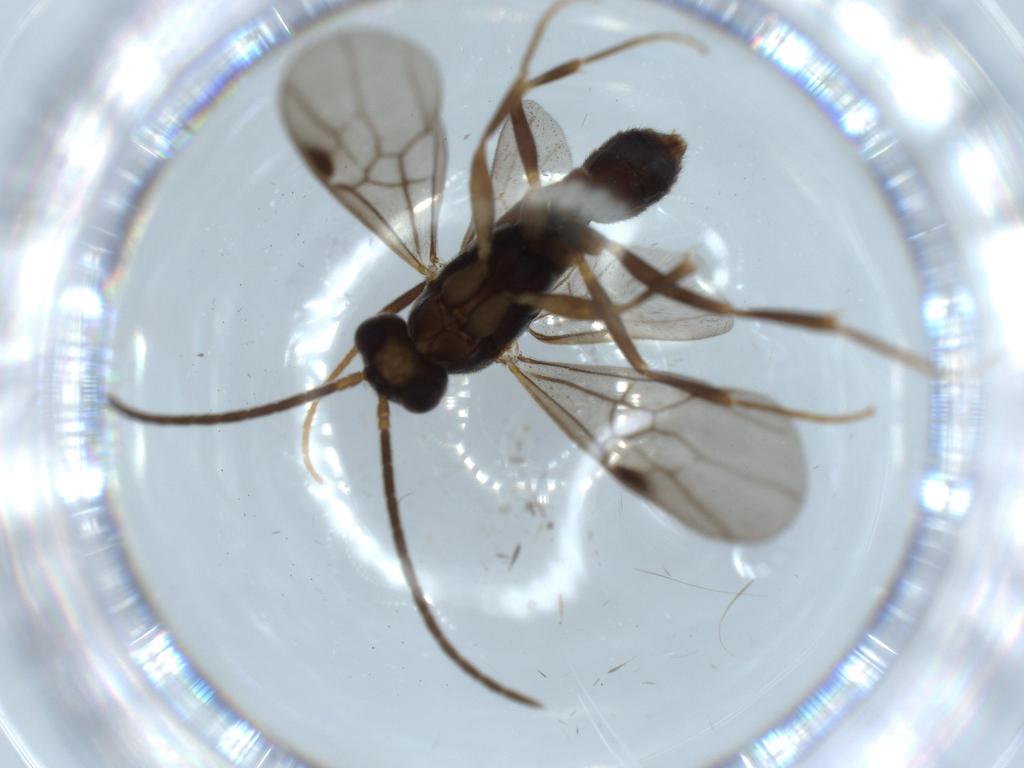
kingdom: Animalia
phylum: Arthropoda
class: Insecta
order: Hymenoptera
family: Formicidae
